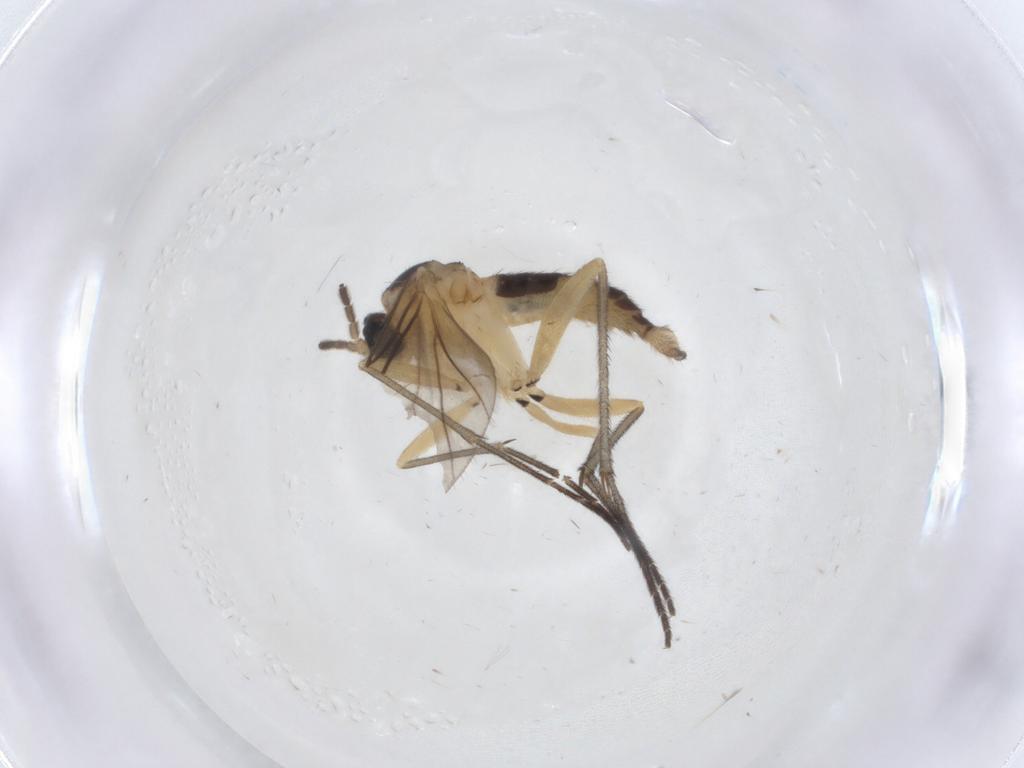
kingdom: Animalia
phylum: Arthropoda
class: Insecta
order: Diptera
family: Sciaridae
